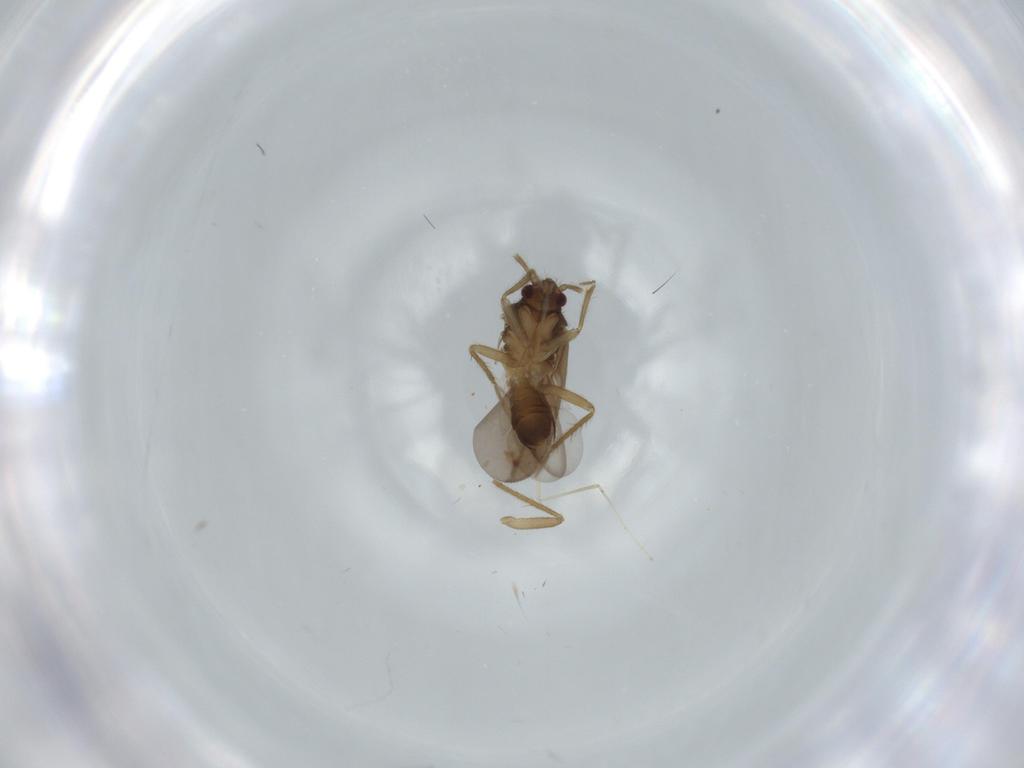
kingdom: Animalia
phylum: Arthropoda
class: Insecta
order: Hemiptera
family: Ceratocombidae
